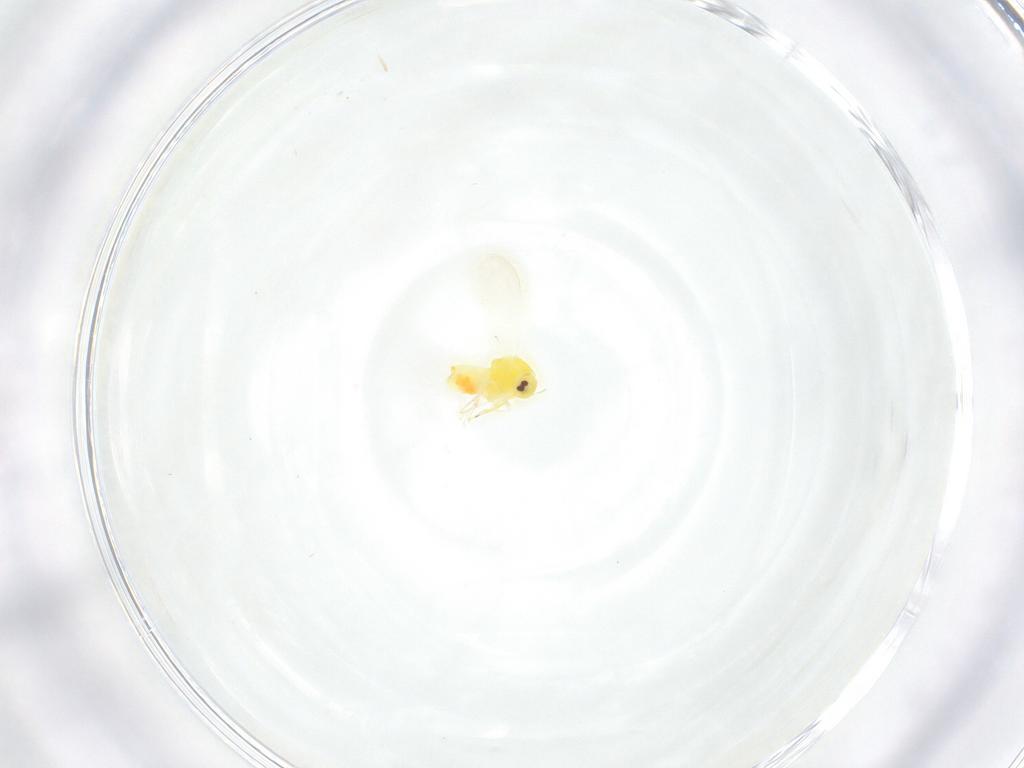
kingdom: Animalia
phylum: Arthropoda
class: Insecta
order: Hemiptera
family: Aleyrodidae
